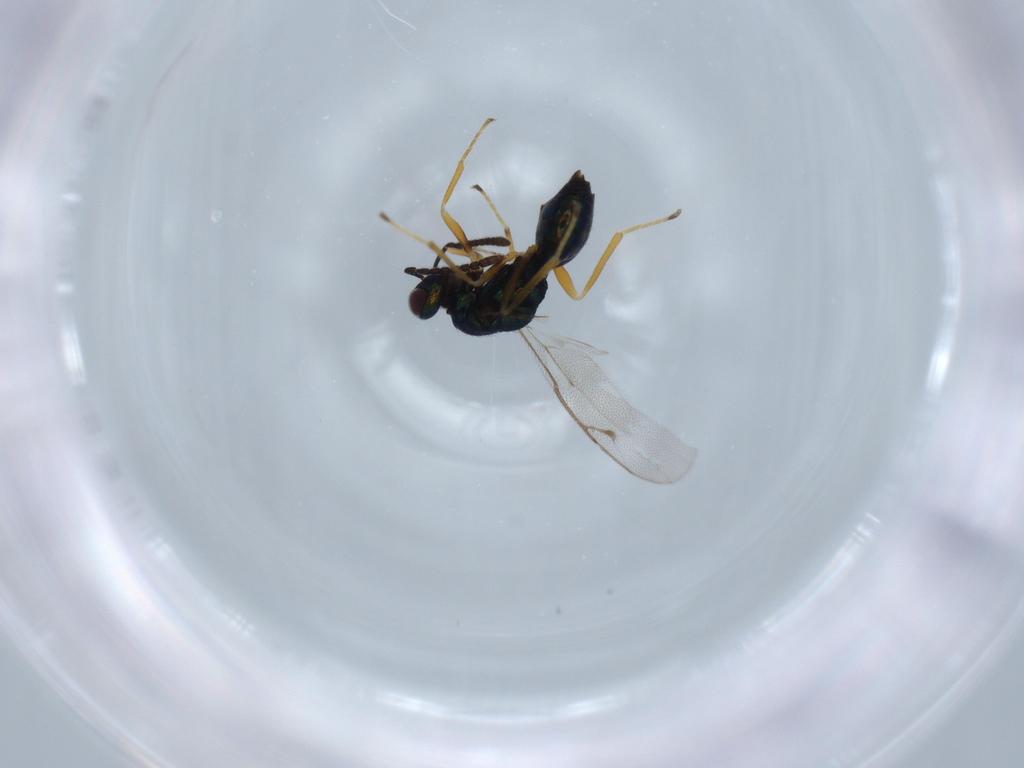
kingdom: Animalia
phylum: Arthropoda
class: Insecta
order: Hymenoptera
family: Pteromalidae
